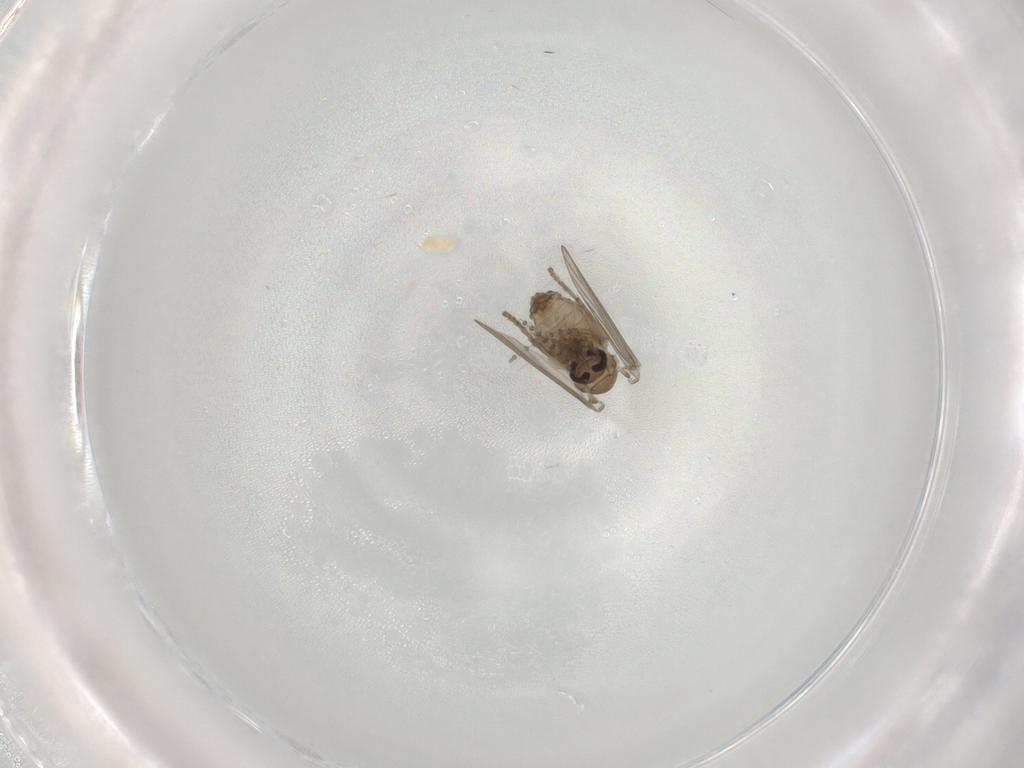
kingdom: Animalia
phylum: Arthropoda
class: Insecta
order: Diptera
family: Psychodidae
